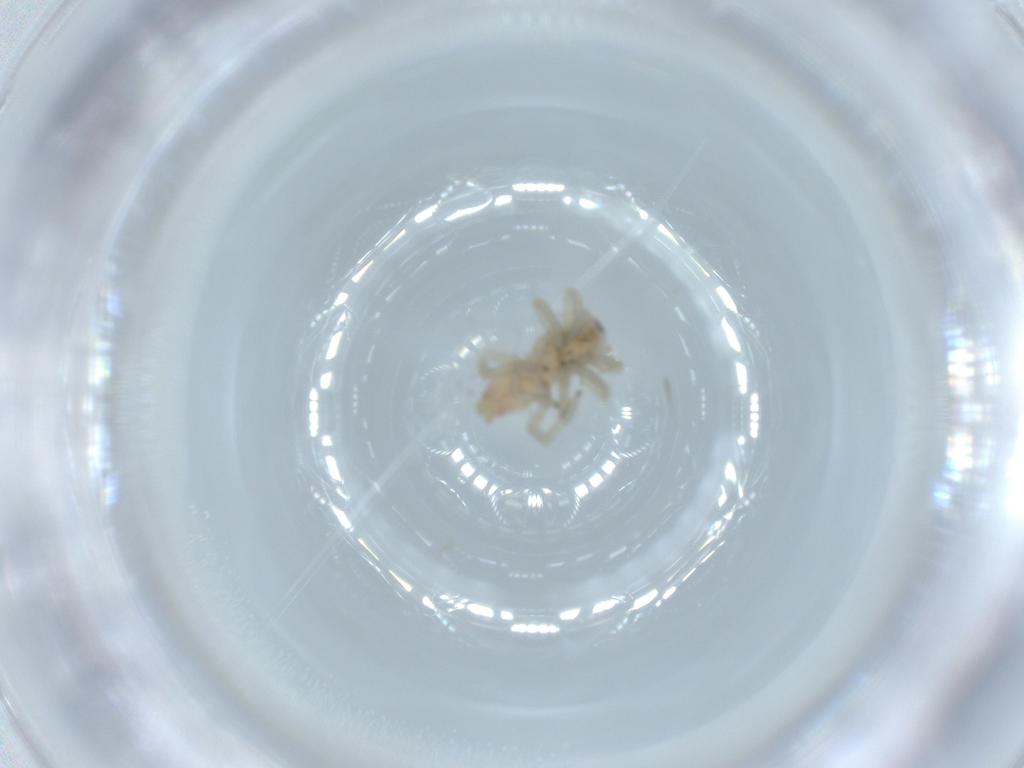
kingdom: Animalia
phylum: Arthropoda
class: Arachnida
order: Araneae
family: Clubionidae
